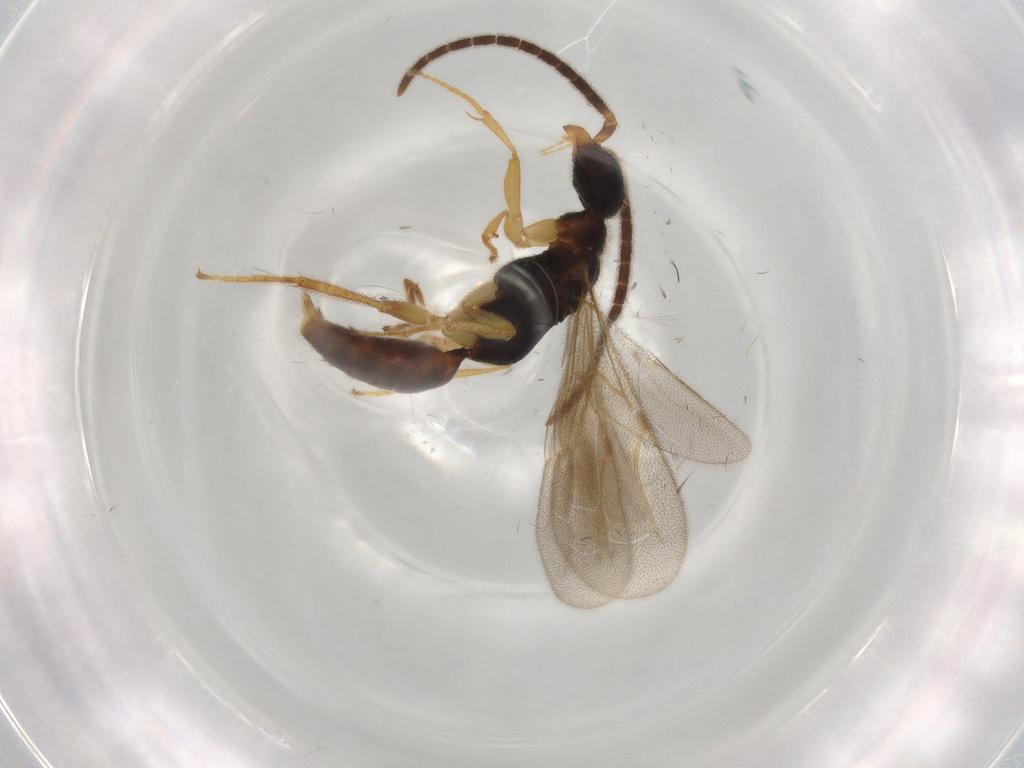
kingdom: Animalia
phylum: Arthropoda
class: Insecta
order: Hymenoptera
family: Bethylidae
